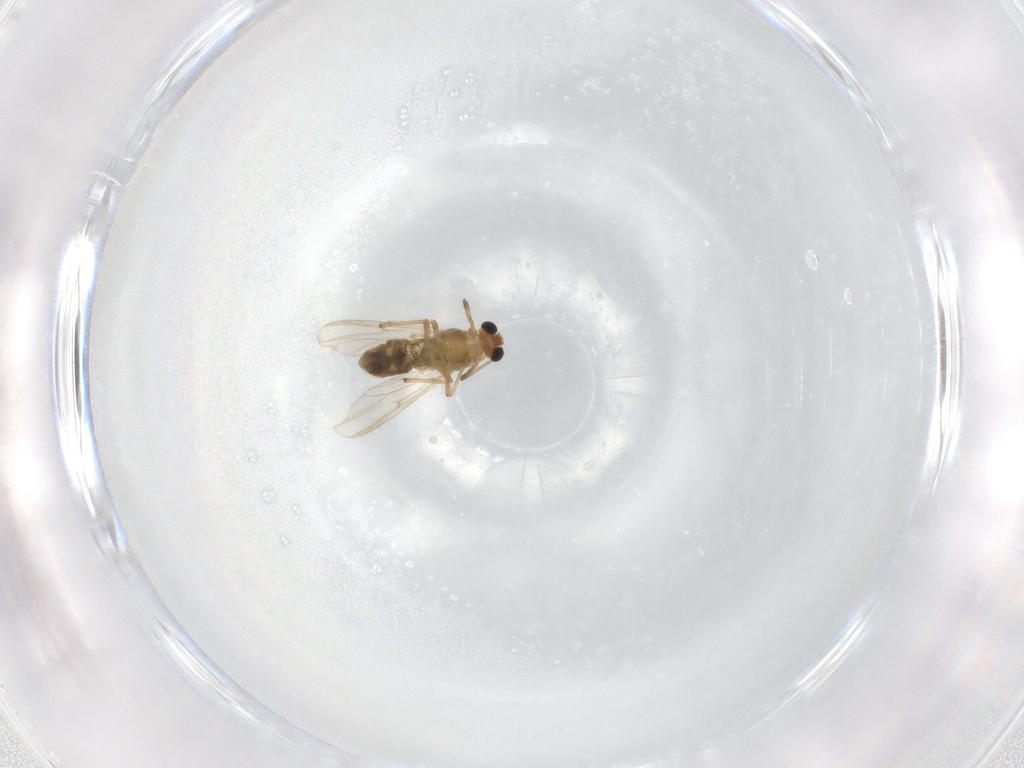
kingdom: Animalia
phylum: Arthropoda
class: Insecta
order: Diptera
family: Chironomidae
